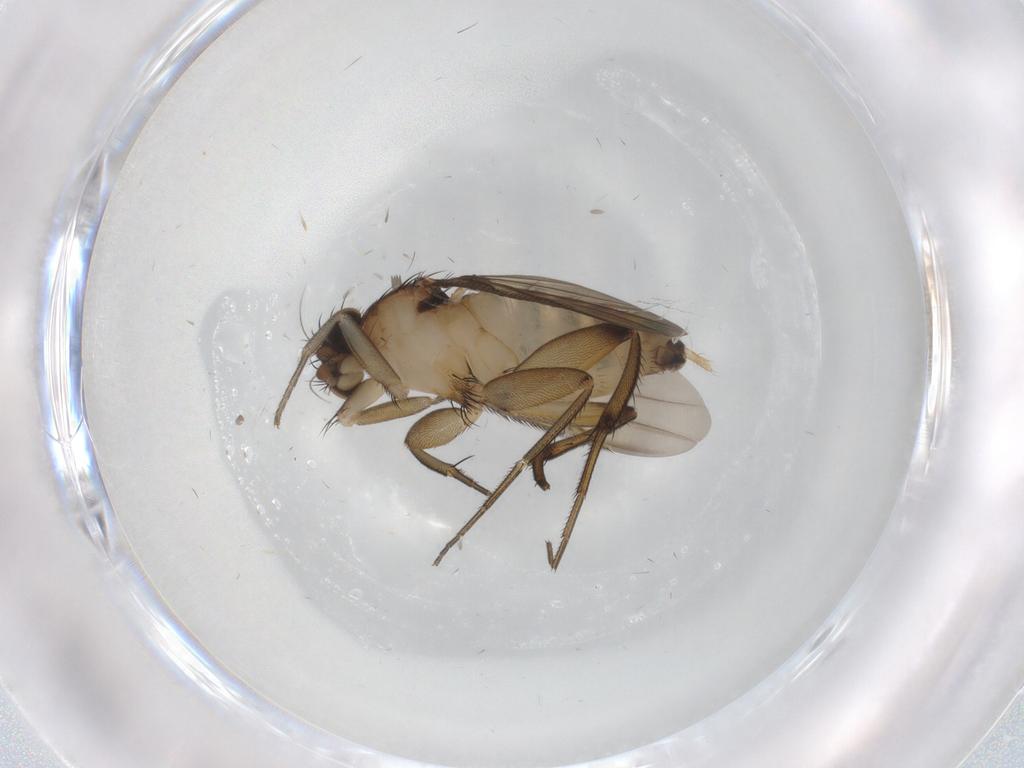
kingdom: Animalia
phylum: Arthropoda
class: Insecta
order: Diptera
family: Phoridae
